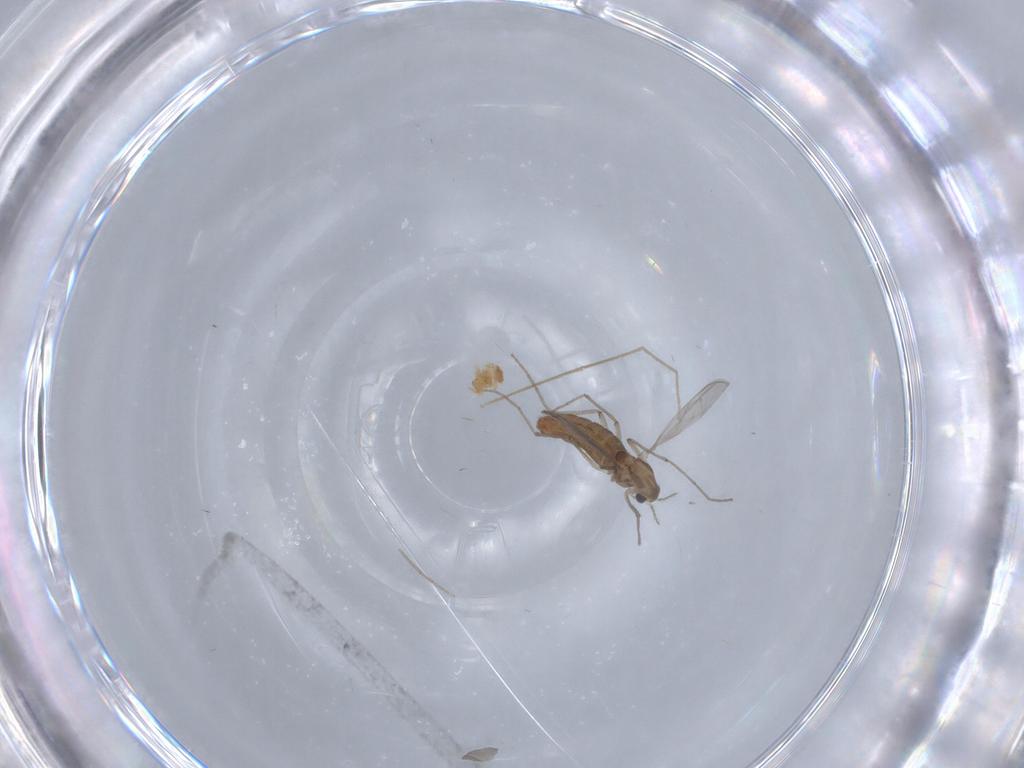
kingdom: Animalia
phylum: Arthropoda
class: Insecta
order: Diptera
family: Chironomidae
